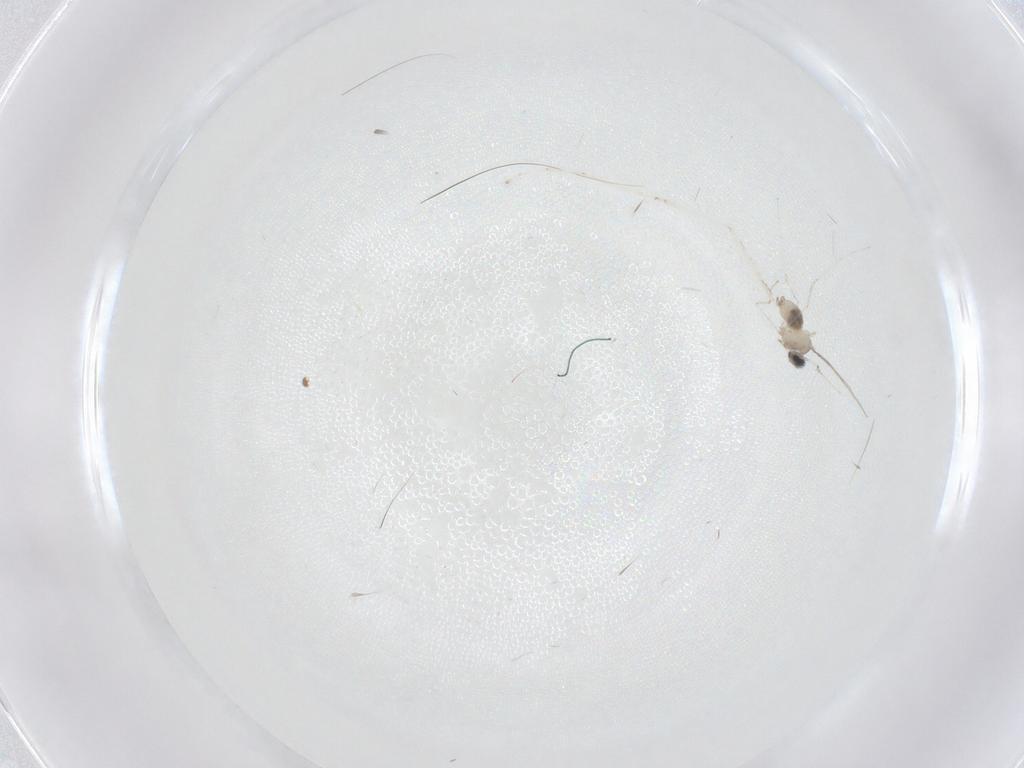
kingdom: Animalia
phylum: Arthropoda
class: Insecta
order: Diptera
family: Cecidomyiidae
